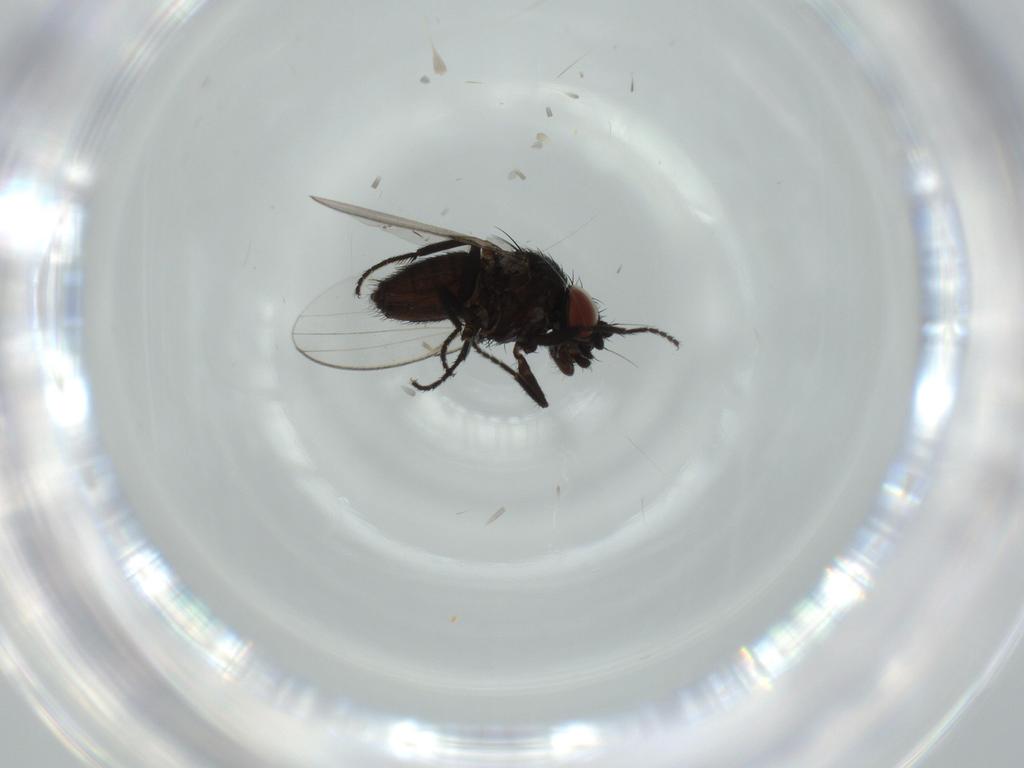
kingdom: Animalia
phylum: Arthropoda
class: Insecta
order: Diptera
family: Milichiidae
